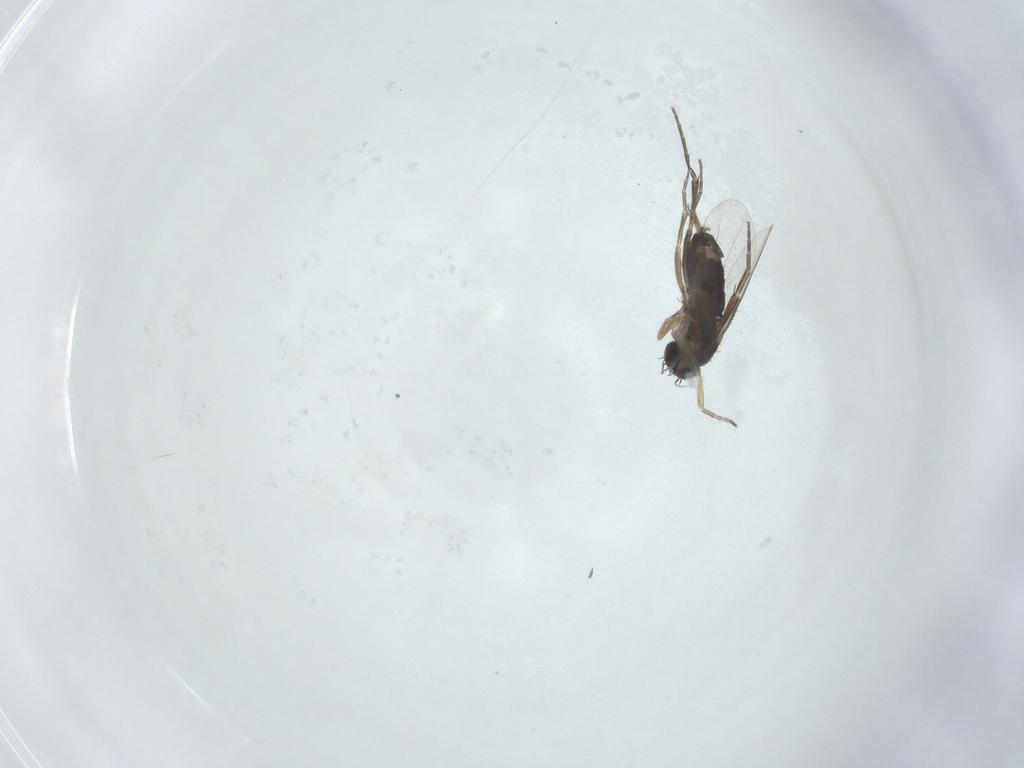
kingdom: Animalia
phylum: Arthropoda
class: Insecta
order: Diptera
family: Phoridae
